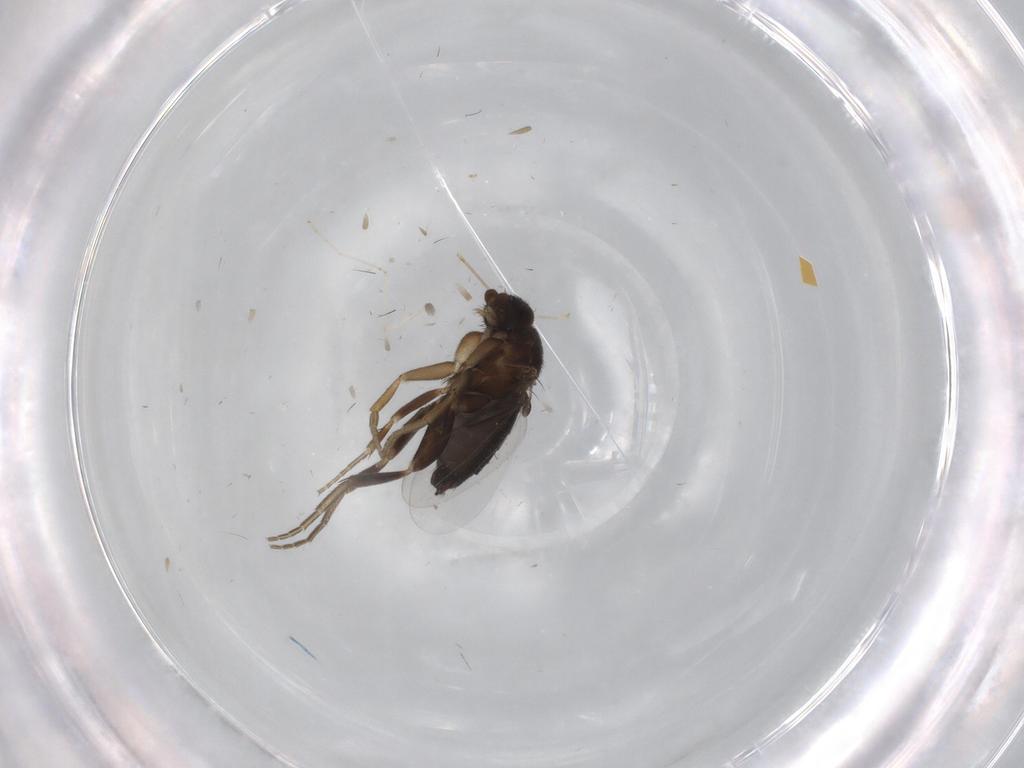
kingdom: Animalia
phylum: Arthropoda
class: Insecta
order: Diptera
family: Phoridae
